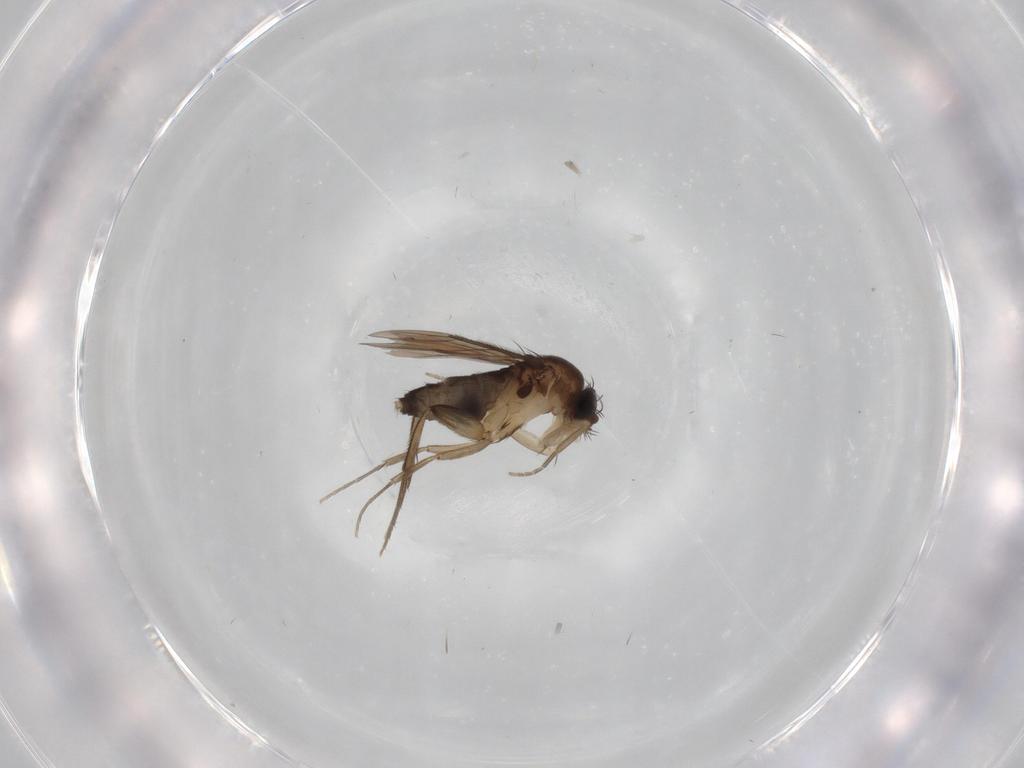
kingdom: Animalia
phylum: Arthropoda
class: Insecta
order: Diptera
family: Phoridae
